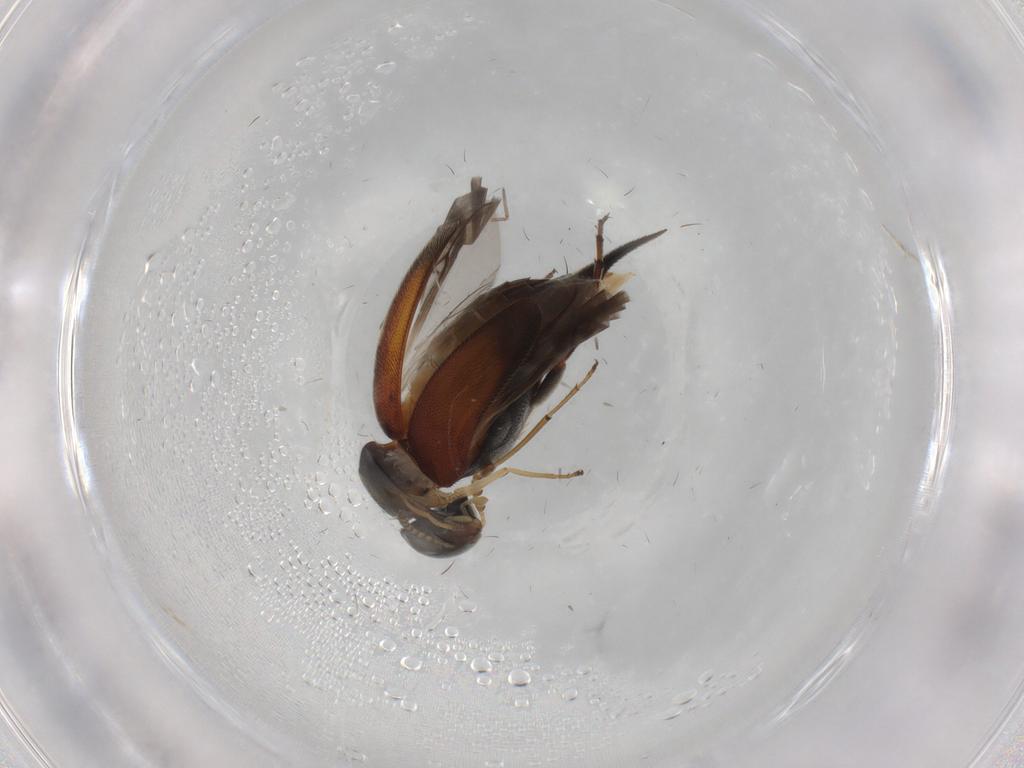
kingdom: Animalia
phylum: Arthropoda
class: Insecta
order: Coleoptera
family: Mordellidae
